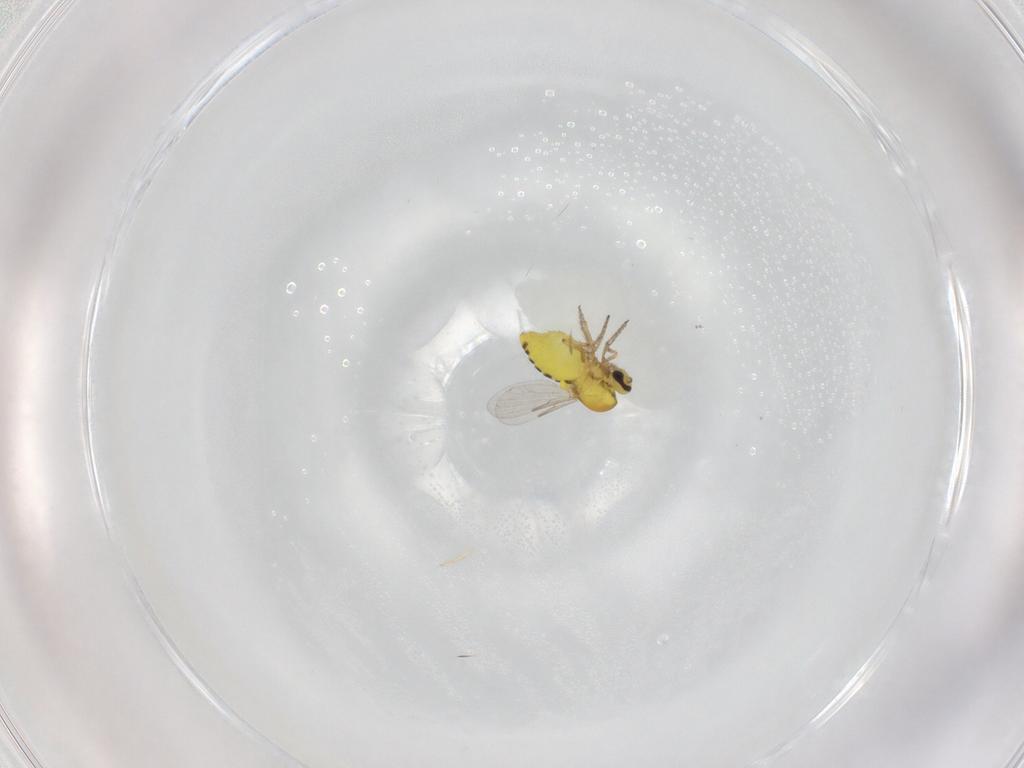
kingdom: Animalia
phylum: Arthropoda
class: Insecta
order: Diptera
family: Ceratopogonidae
